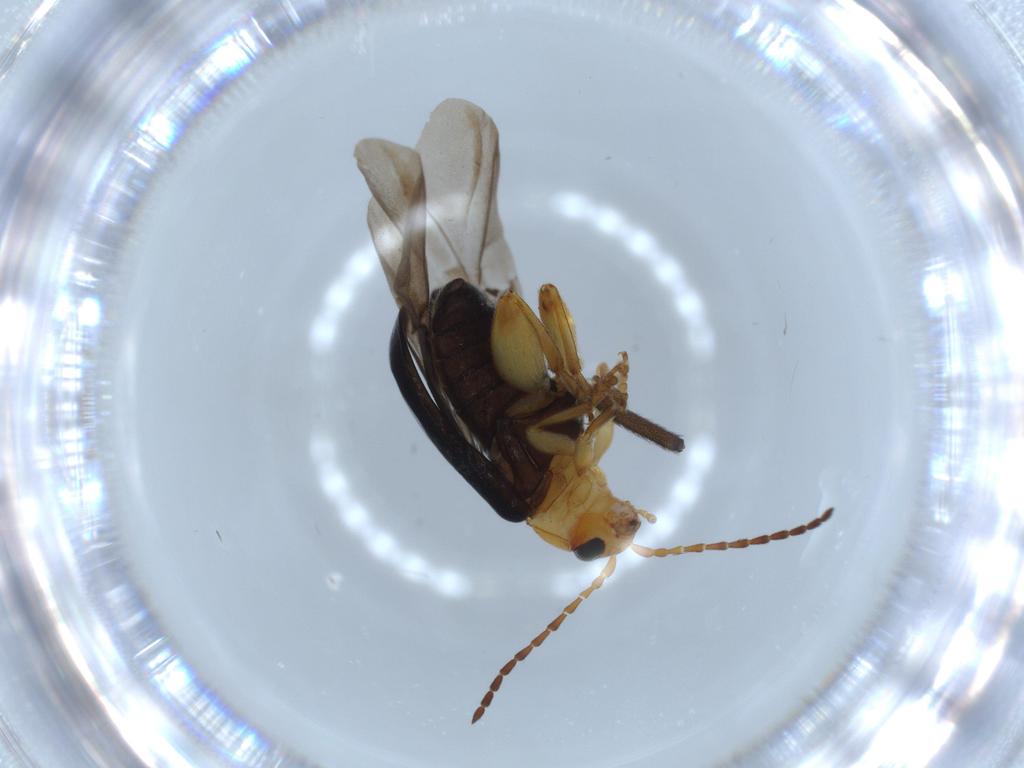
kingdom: Animalia
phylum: Arthropoda
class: Insecta
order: Coleoptera
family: Chrysomelidae
